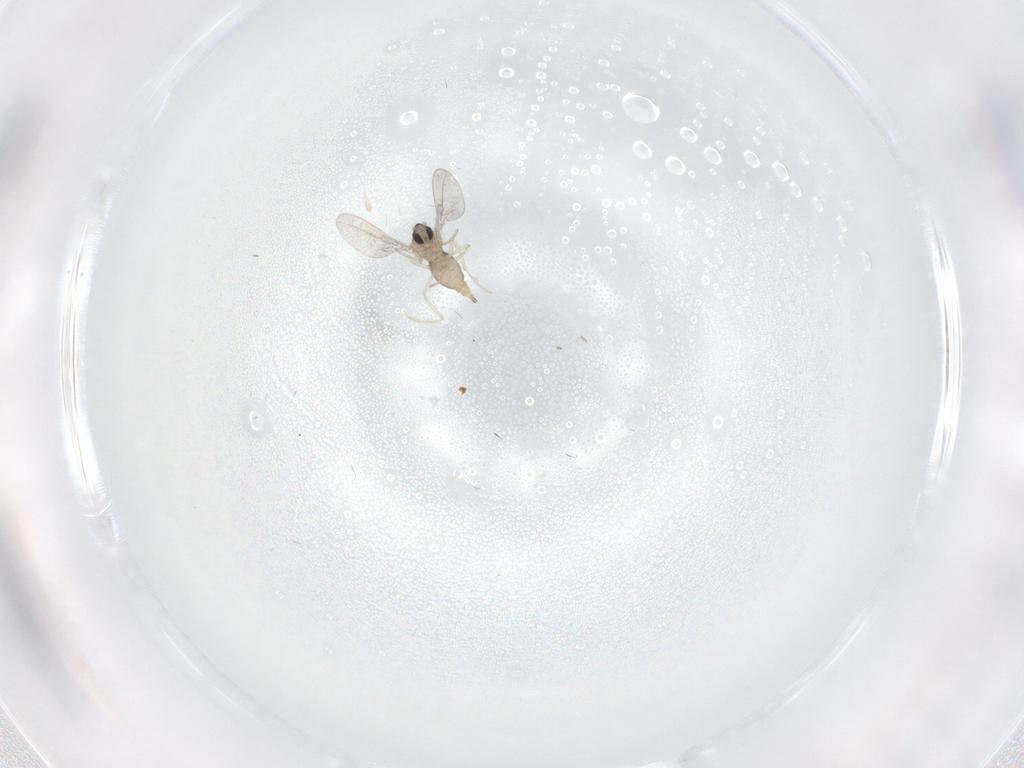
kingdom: Animalia
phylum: Arthropoda
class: Insecta
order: Diptera
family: Cecidomyiidae
